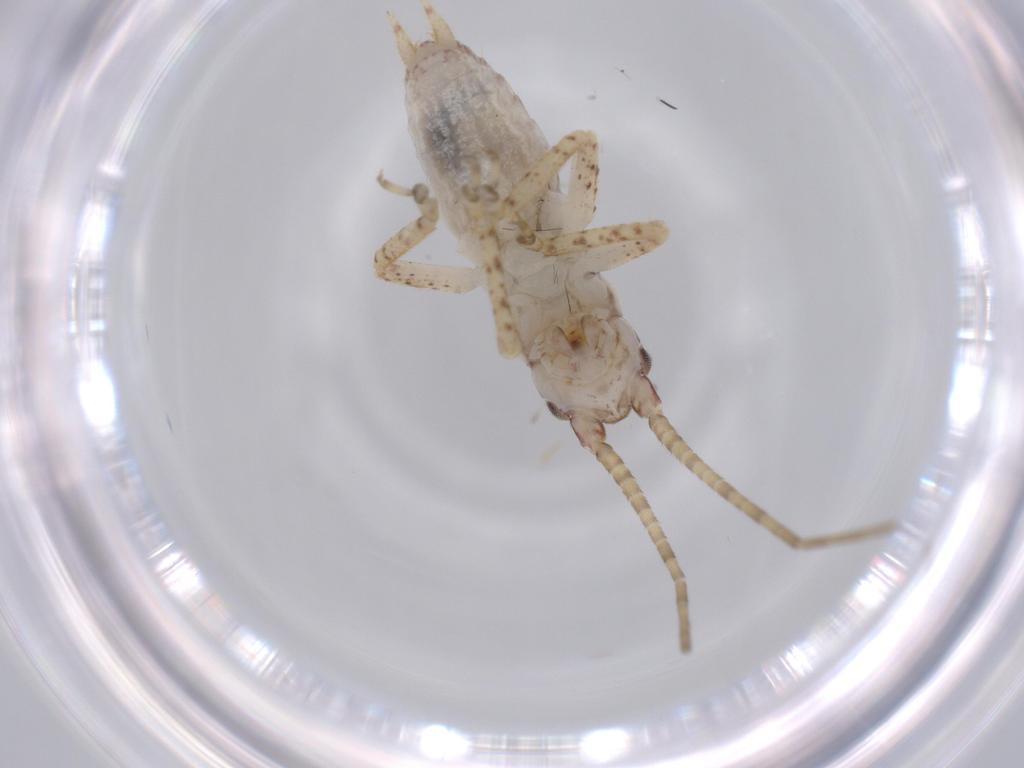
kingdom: Animalia
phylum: Arthropoda
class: Insecta
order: Orthoptera
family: Gryllidae
